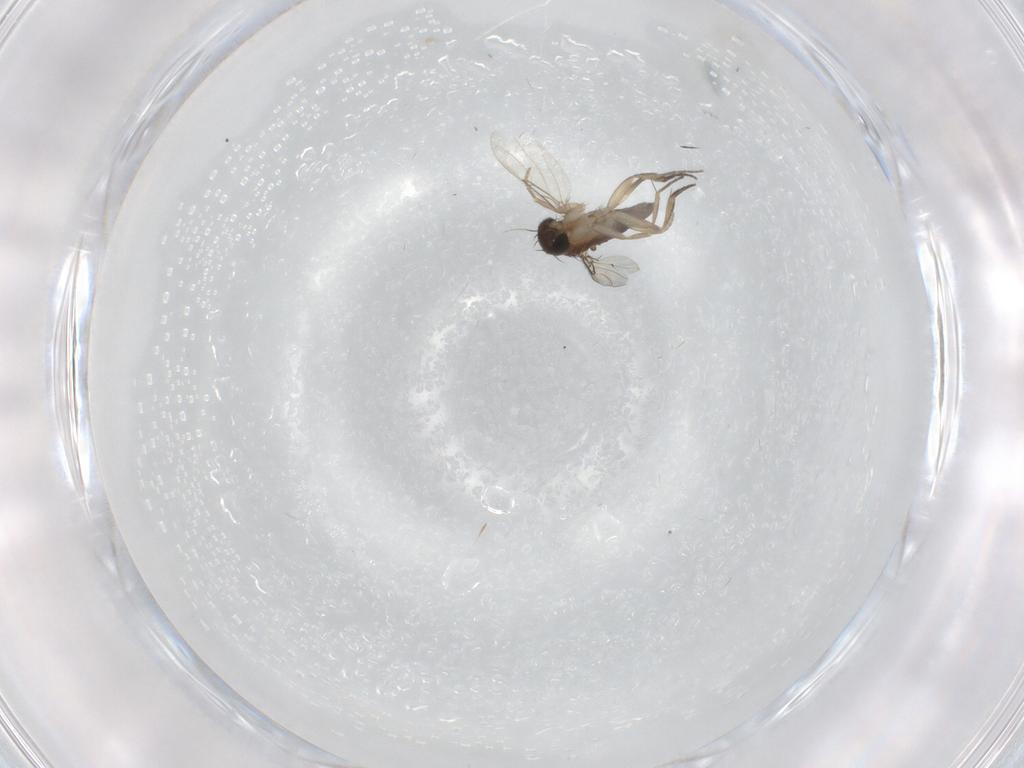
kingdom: Animalia
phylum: Arthropoda
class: Insecta
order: Diptera
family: Phoridae
